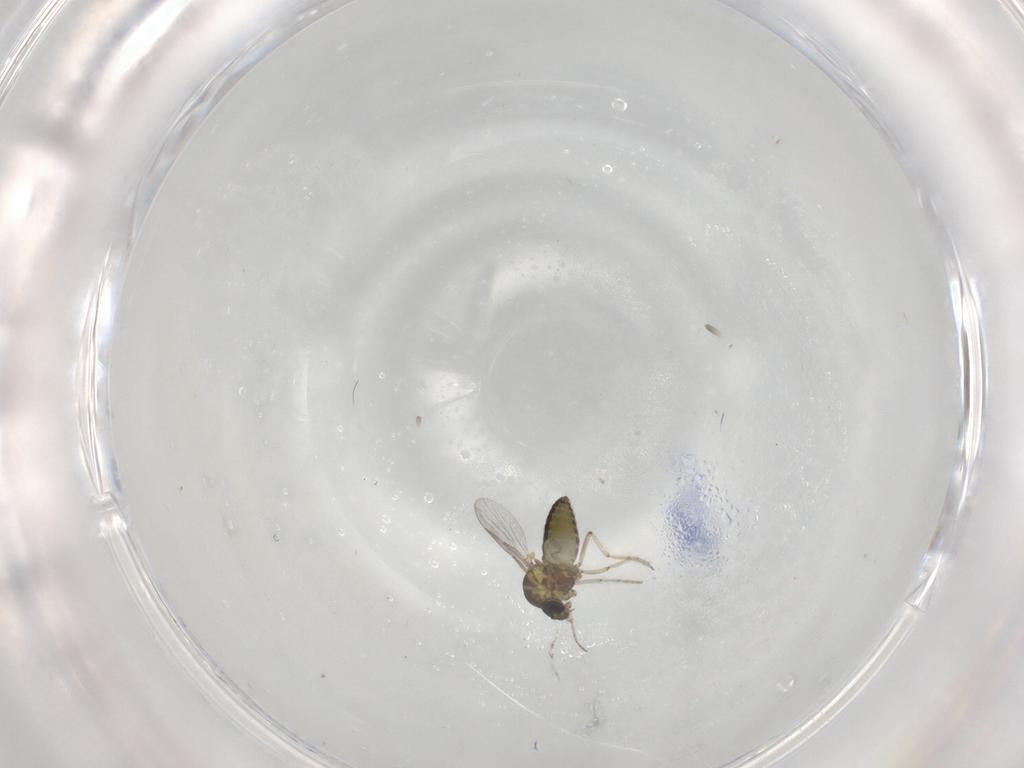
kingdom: Animalia
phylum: Arthropoda
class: Insecta
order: Diptera
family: Ceratopogonidae
